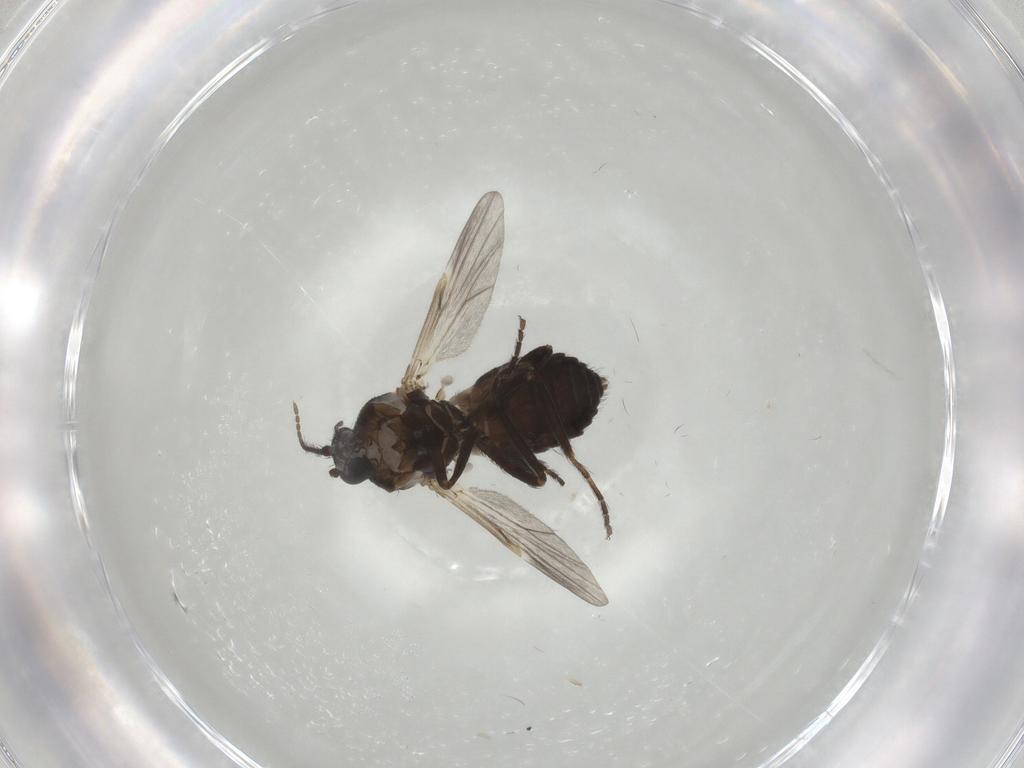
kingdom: Animalia
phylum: Arthropoda
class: Insecta
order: Diptera
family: Ceratopogonidae
